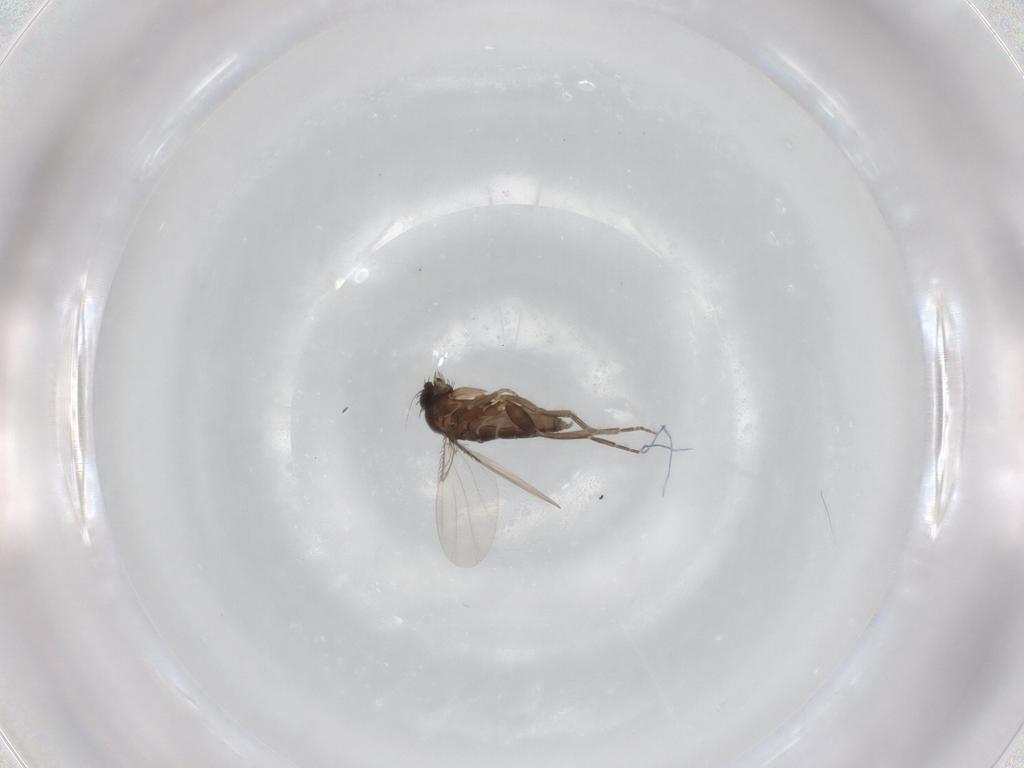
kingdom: Animalia
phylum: Arthropoda
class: Insecta
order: Diptera
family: Phoridae
